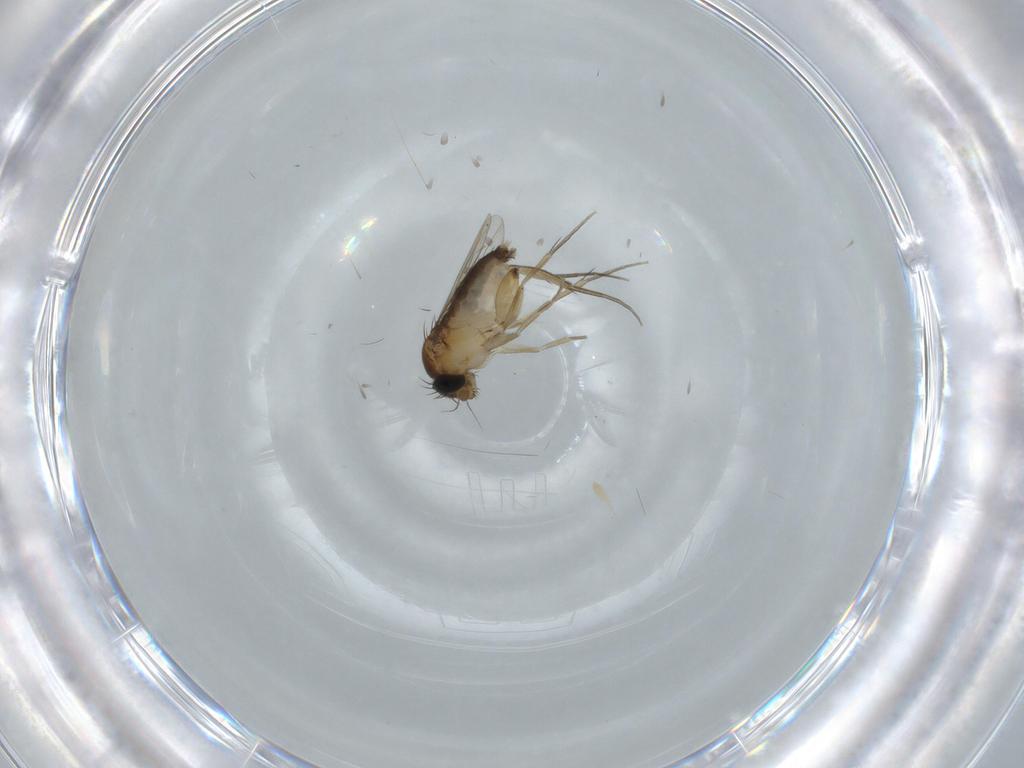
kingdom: Animalia
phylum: Arthropoda
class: Insecta
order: Diptera
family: Phoridae
